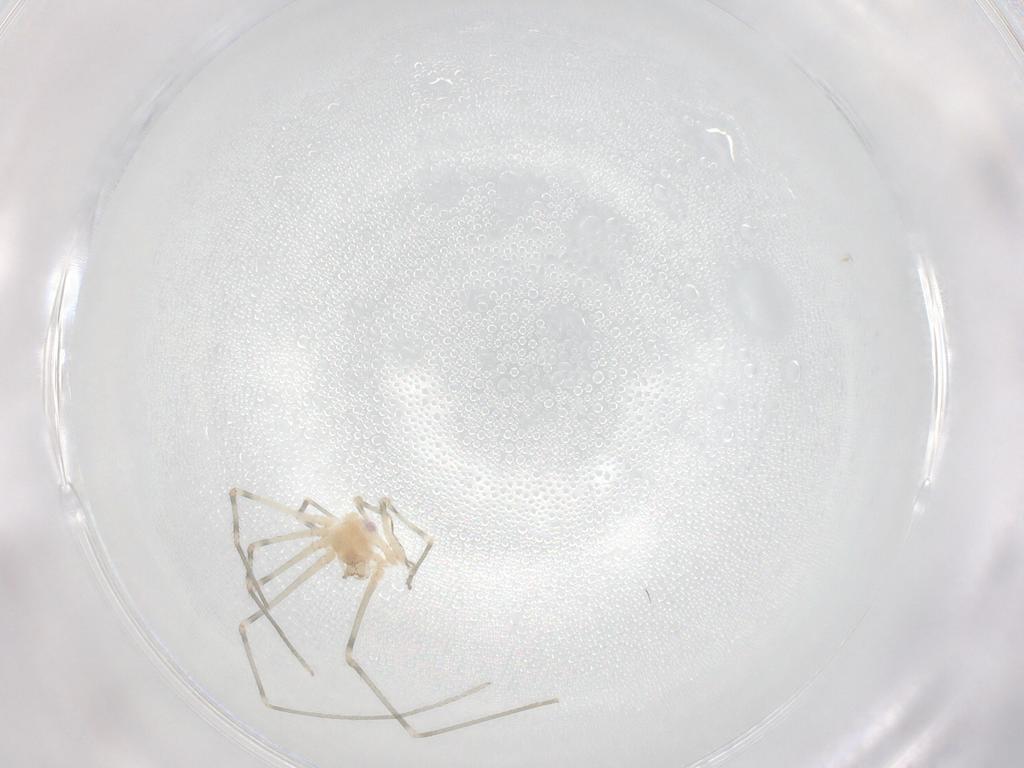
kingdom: Animalia
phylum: Arthropoda
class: Arachnida
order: Araneae
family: Pholcidae
